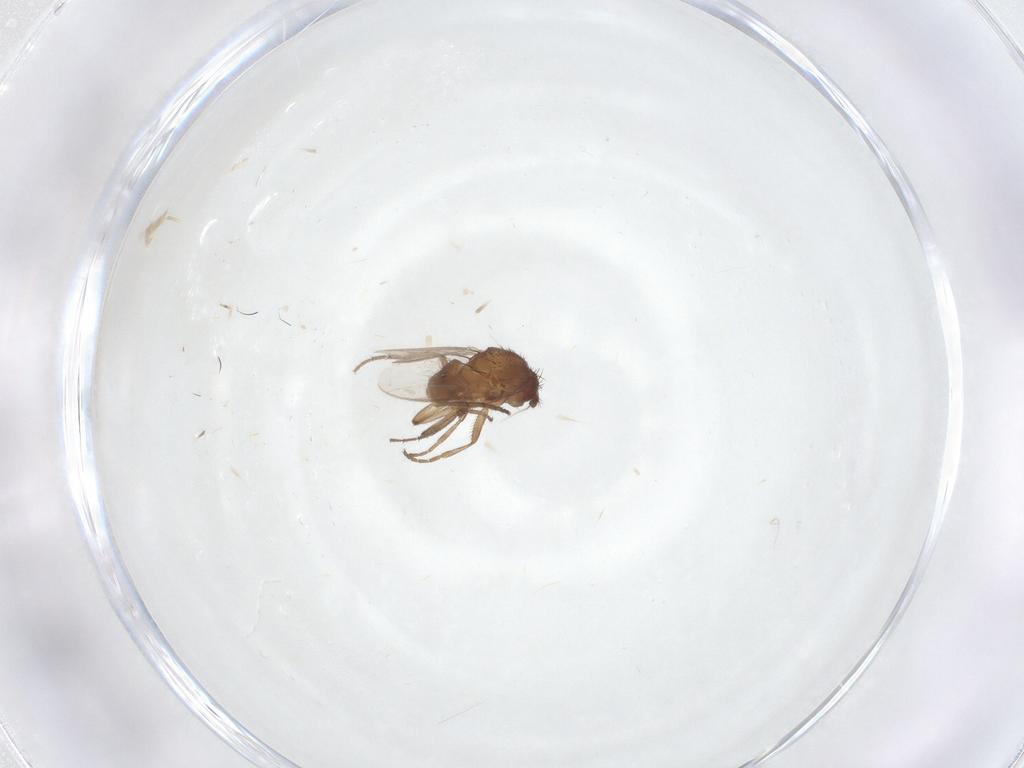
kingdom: Animalia
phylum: Arthropoda
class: Insecta
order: Diptera
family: Dolichopodidae
